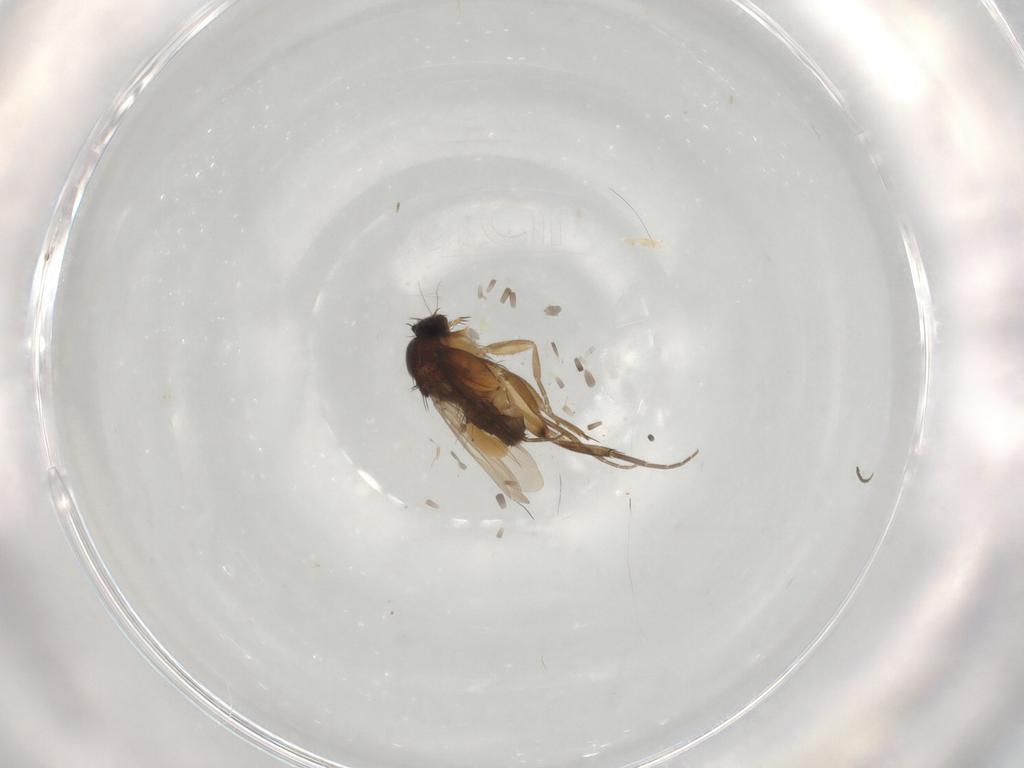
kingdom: Animalia
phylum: Arthropoda
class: Insecta
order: Diptera
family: Phoridae
